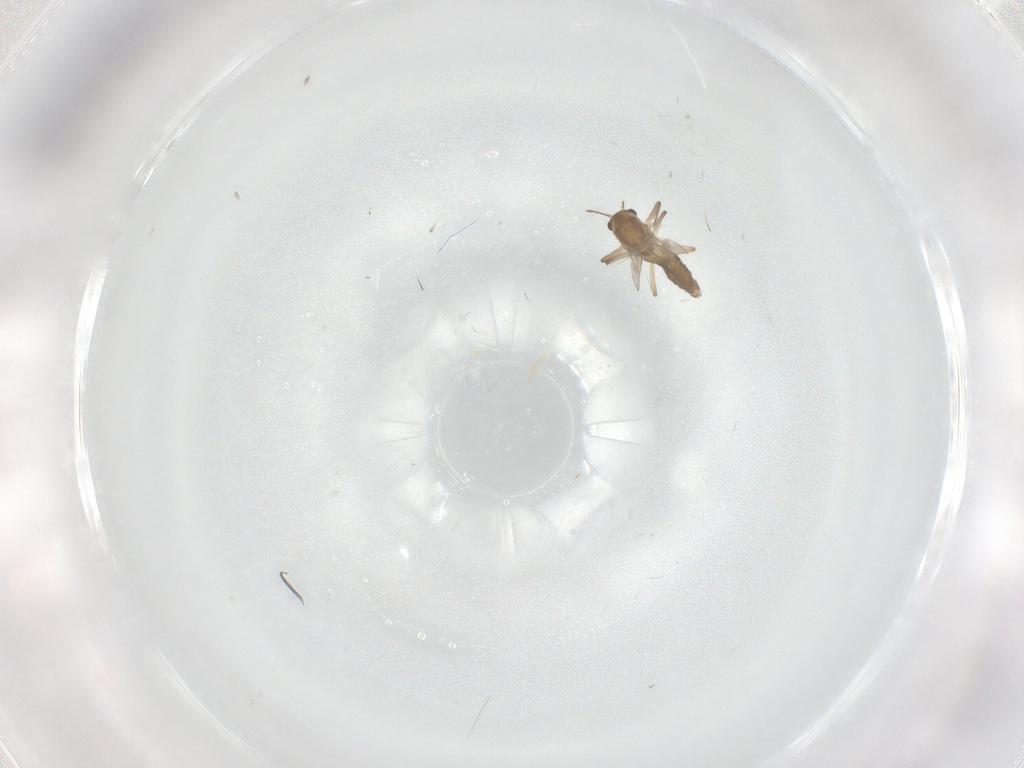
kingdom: Animalia
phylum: Arthropoda
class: Insecta
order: Diptera
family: Chironomidae
